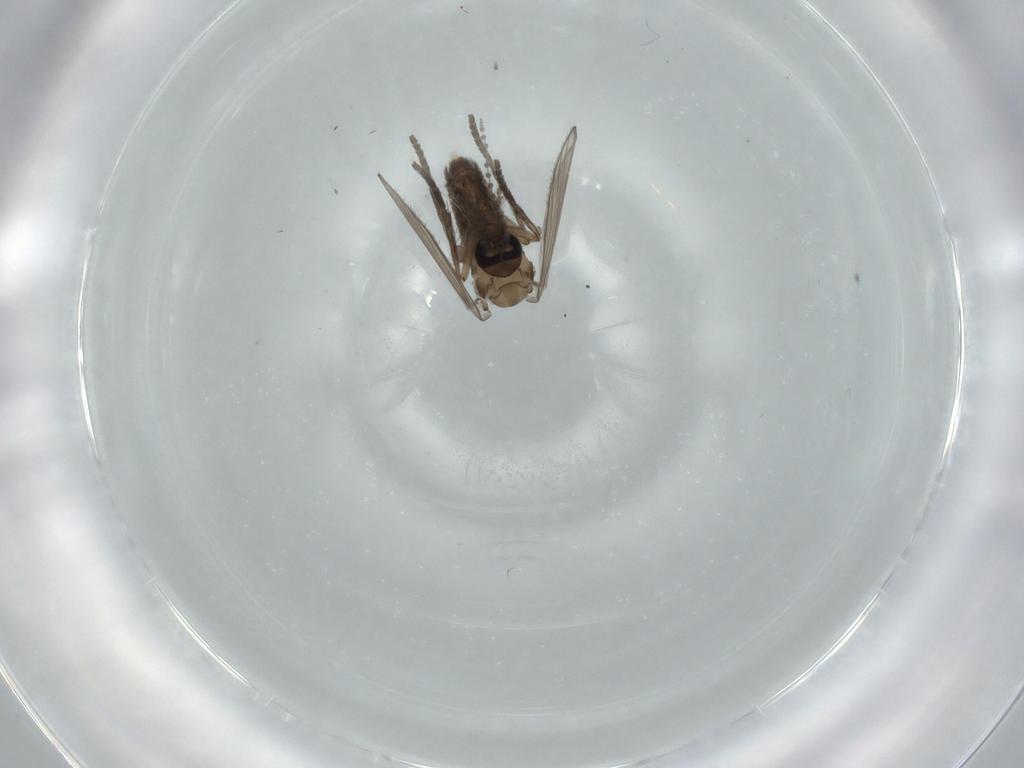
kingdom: Animalia
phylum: Arthropoda
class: Insecta
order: Diptera
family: Psychodidae
